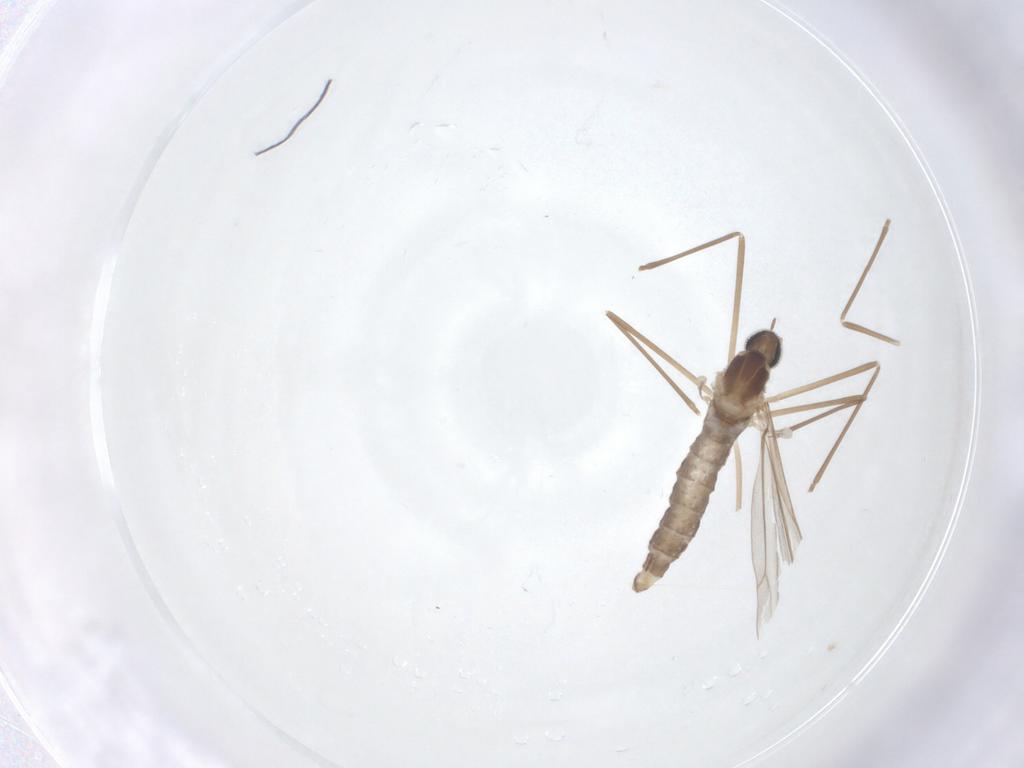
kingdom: Animalia
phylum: Arthropoda
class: Insecta
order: Diptera
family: Cecidomyiidae
